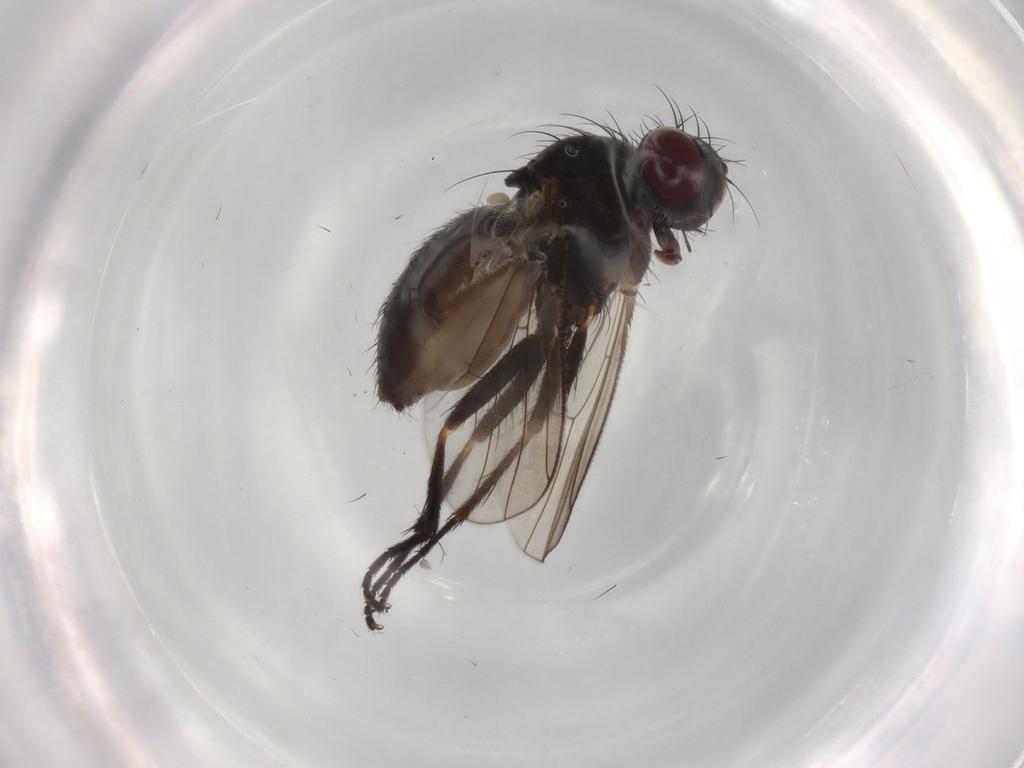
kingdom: Animalia
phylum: Arthropoda
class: Insecta
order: Diptera
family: Muscidae
